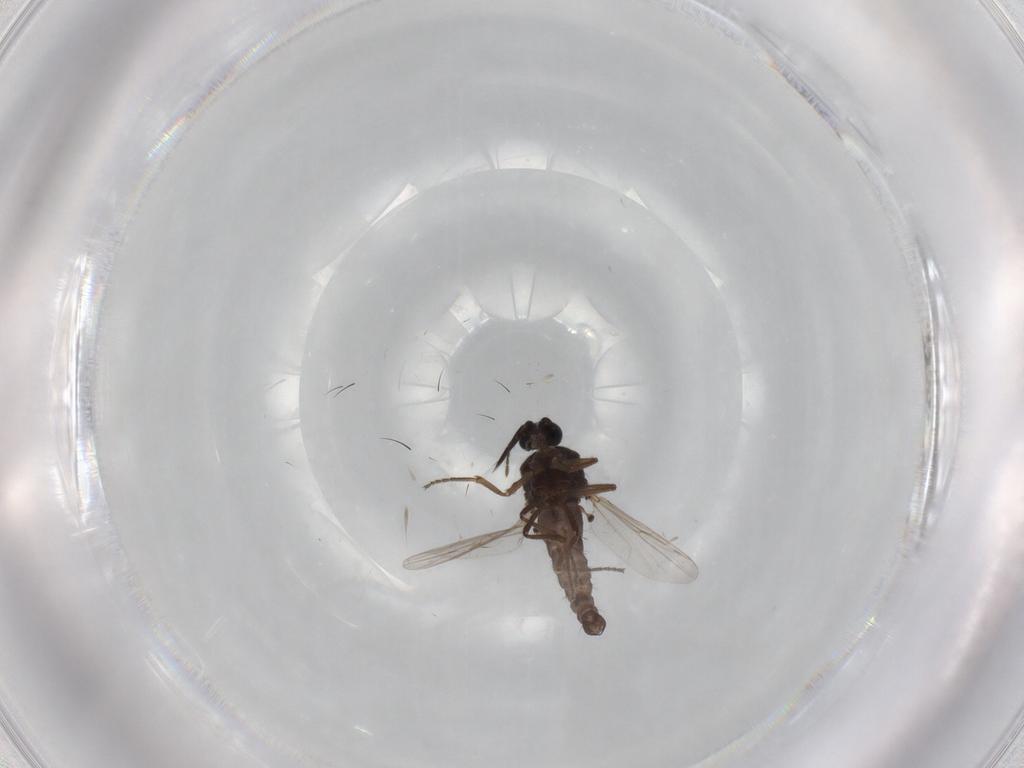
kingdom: Animalia
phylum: Arthropoda
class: Insecta
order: Diptera
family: Ceratopogonidae
